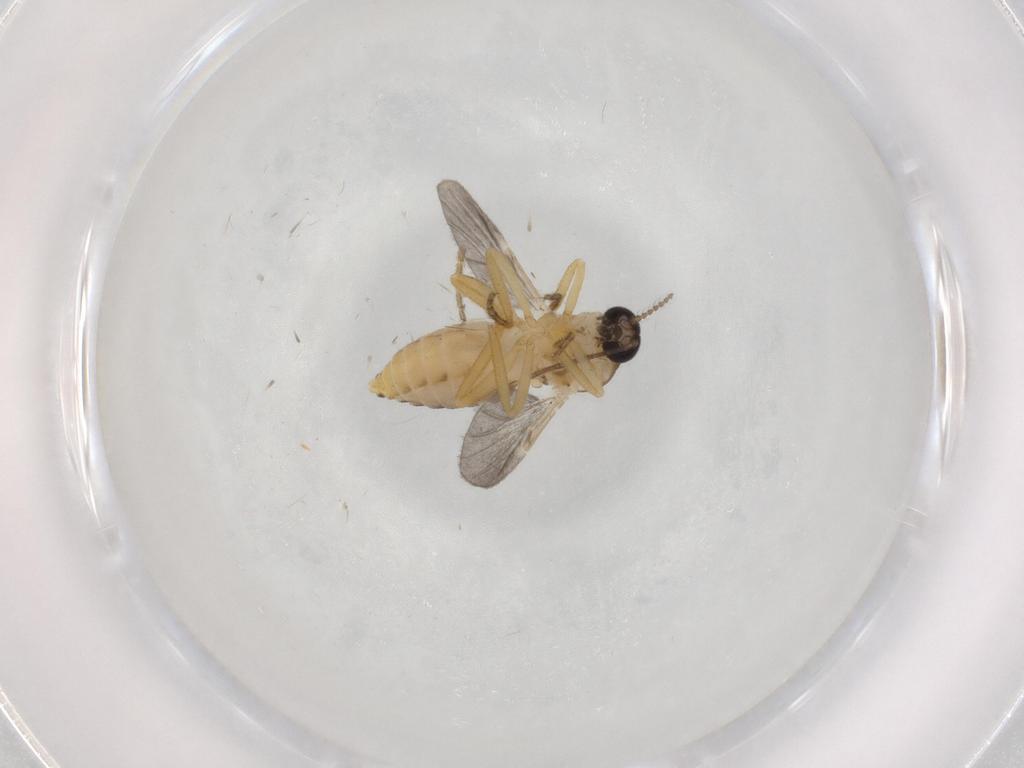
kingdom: Animalia
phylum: Arthropoda
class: Insecta
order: Diptera
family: Ceratopogonidae
